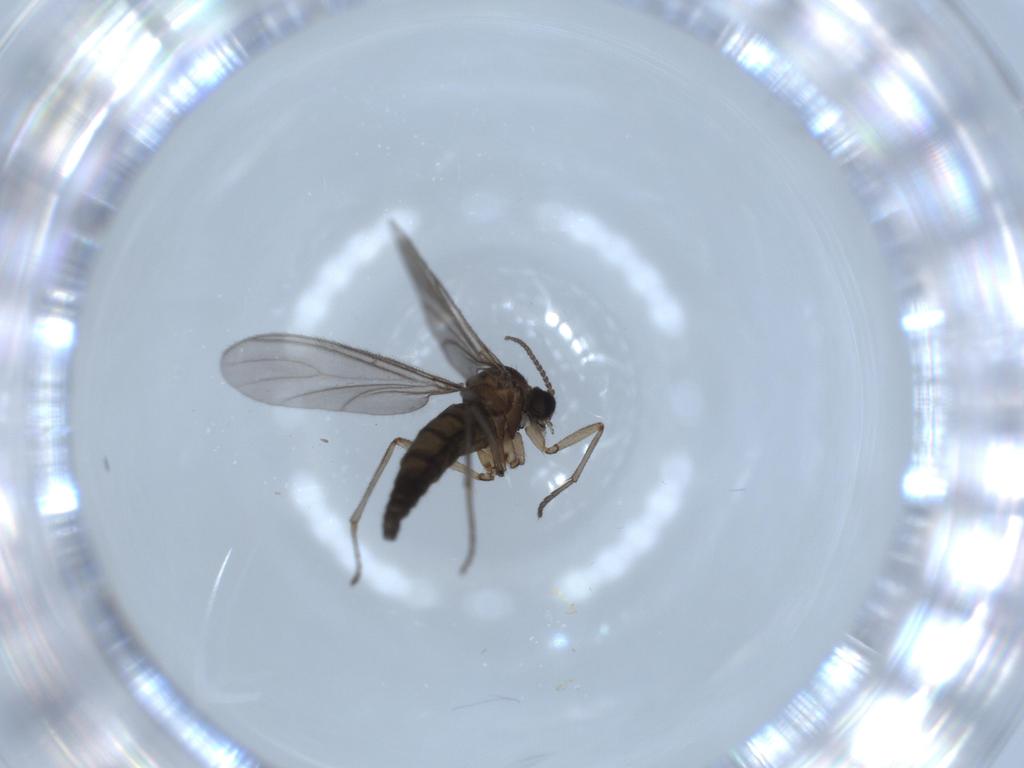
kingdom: Animalia
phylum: Arthropoda
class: Insecta
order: Diptera
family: Sciaridae
